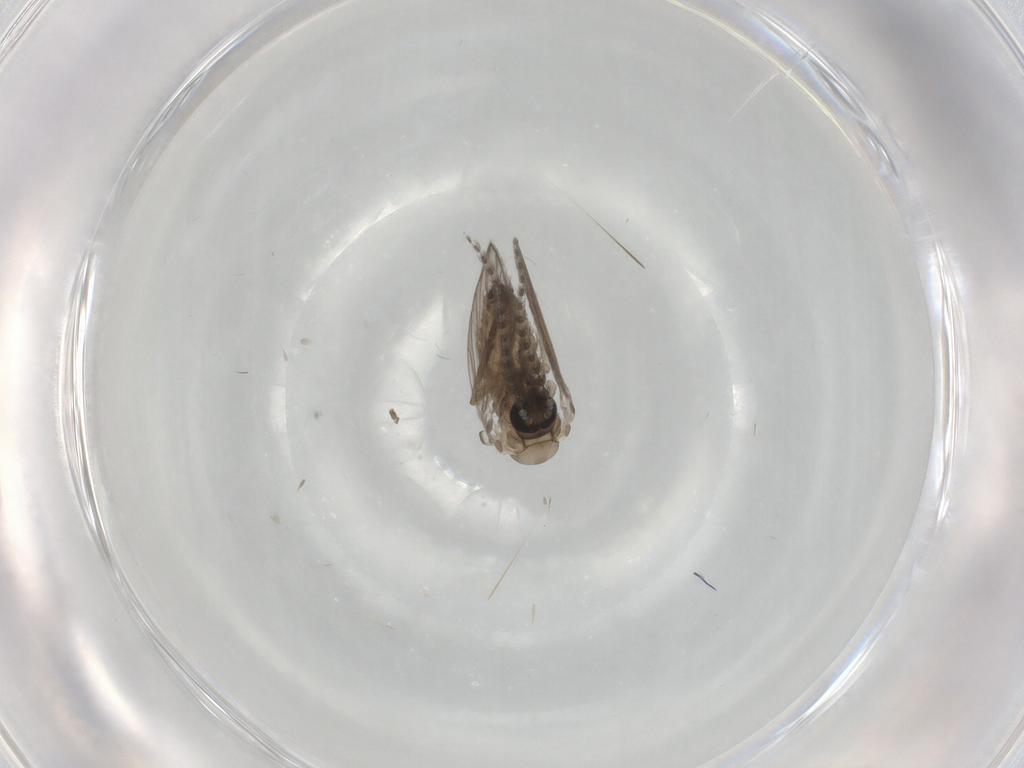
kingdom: Animalia
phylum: Arthropoda
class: Insecta
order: Diptera
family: Psychodidae
